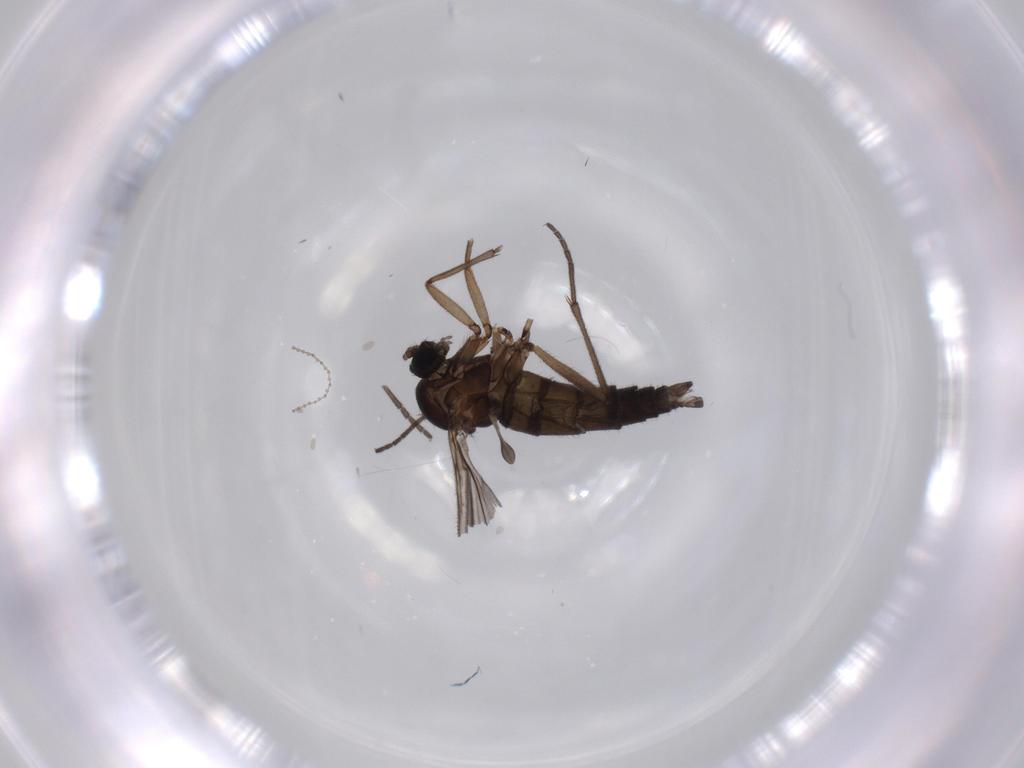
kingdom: Animalia
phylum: Arthropoda
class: Insecta
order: Diptera
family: Sciaridae
